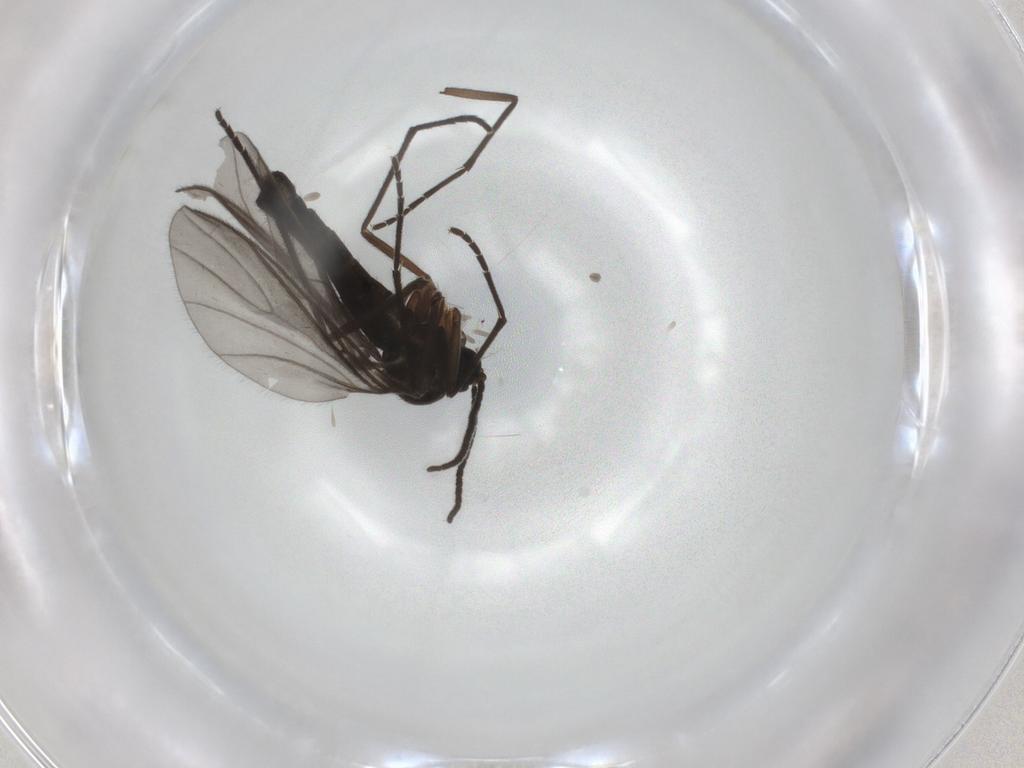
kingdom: Animalia
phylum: Arthropoda
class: Insecta
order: Diptera
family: Sciaridae
